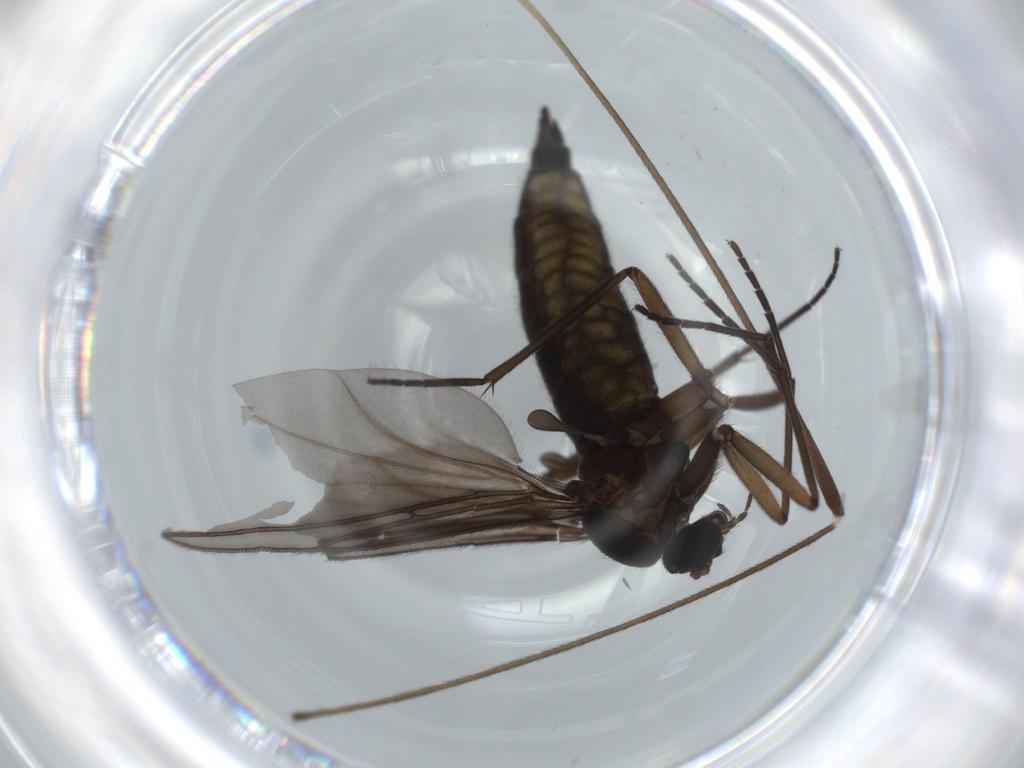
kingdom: Animalia
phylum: Arthropoda
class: Insecta
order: Diptera
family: Sciaridae
